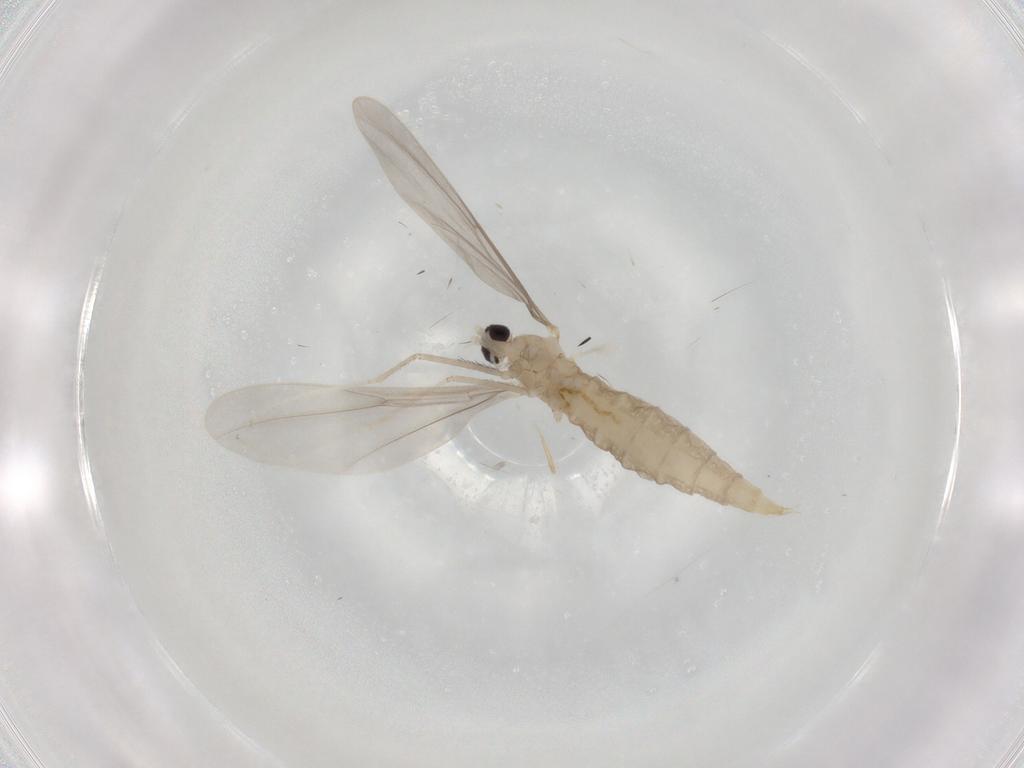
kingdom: Animalia
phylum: Arthropoda
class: Insecta
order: Diptera
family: Cecidomyiidae
